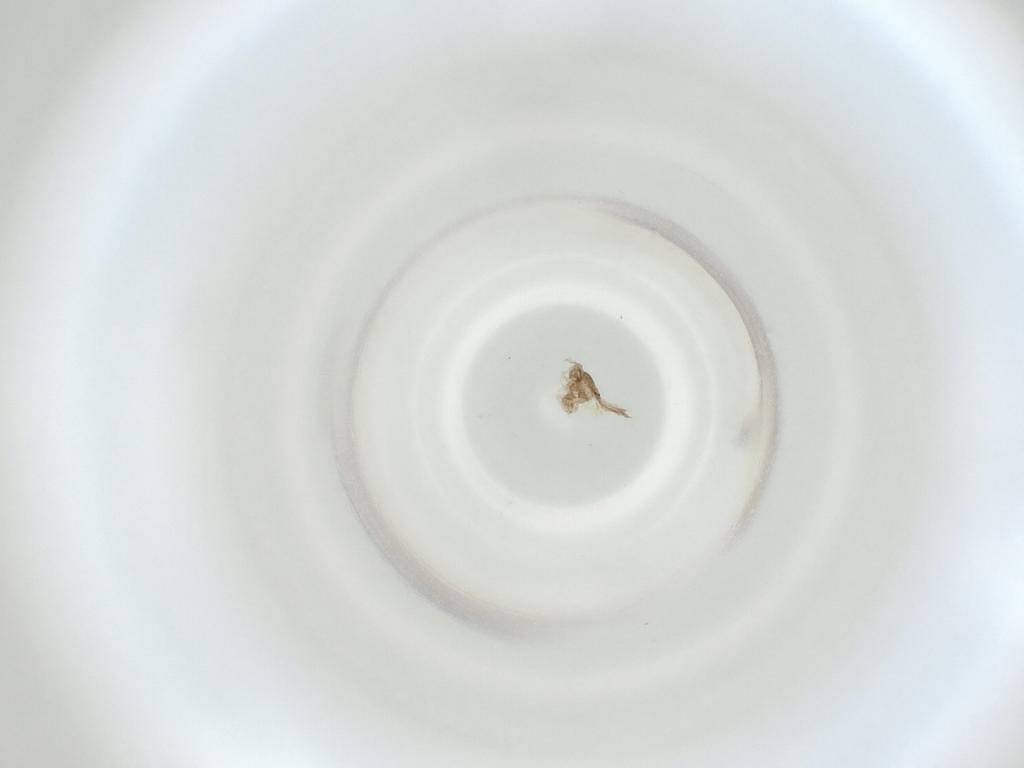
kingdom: Animalia
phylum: Arthropoda
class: Insecta
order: Diptera
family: Cecidomyiidae
